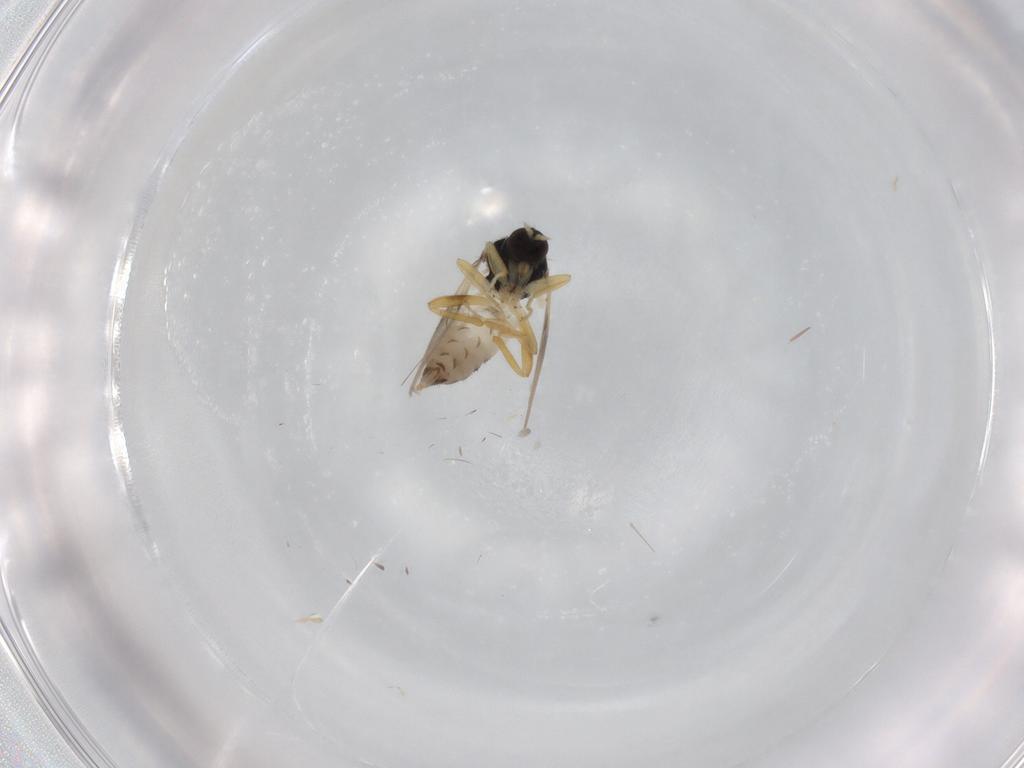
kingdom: Animalia
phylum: Arthropoda
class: Insecta
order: Diptera
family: Hybotidae
